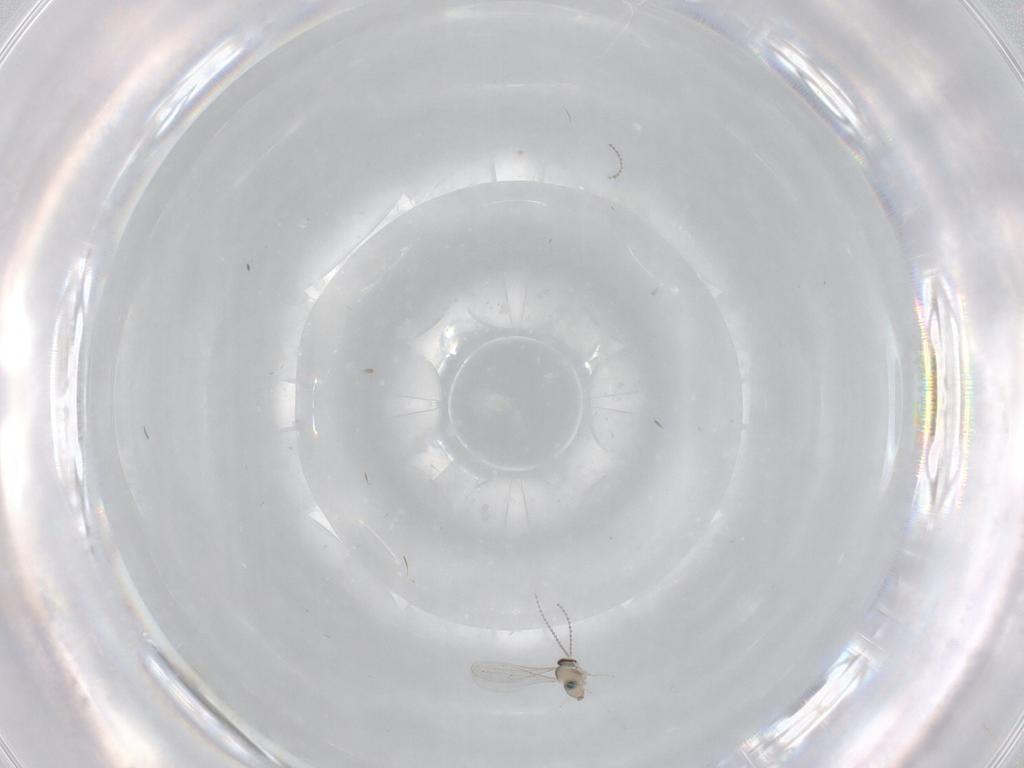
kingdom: Animalia
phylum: Arthropoda
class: Insecta
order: Diptera
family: Cecidomyiidae
